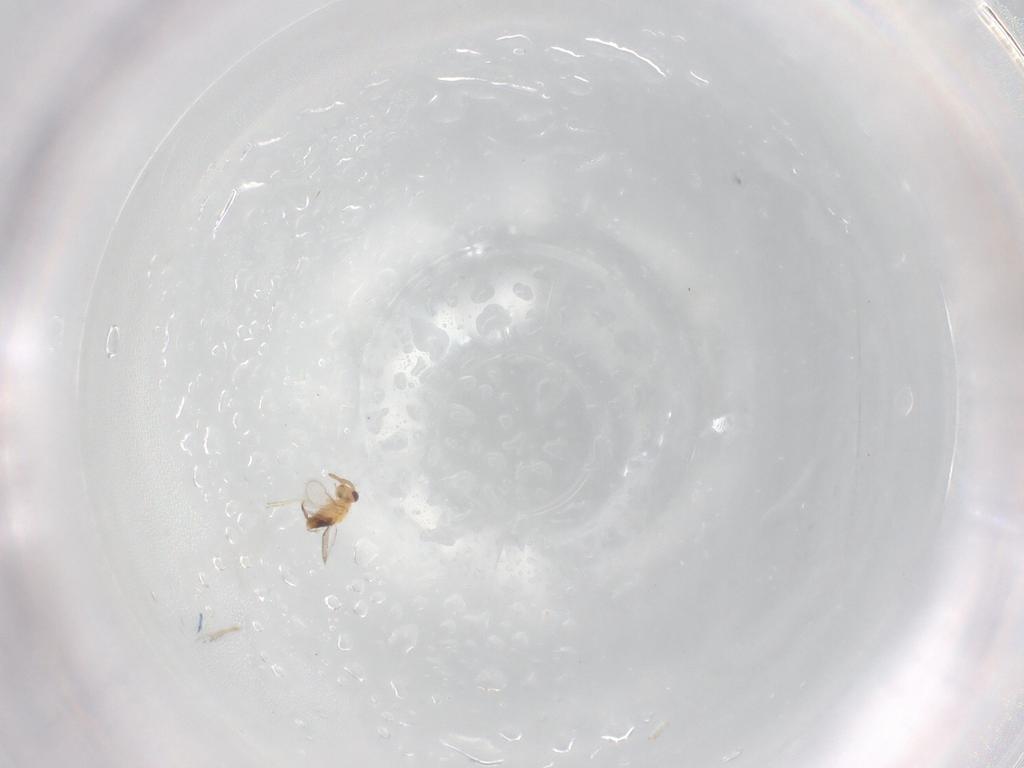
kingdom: Animalia
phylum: Arthropoda
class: Insecta
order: Hymenoptera
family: Aphelinidae
